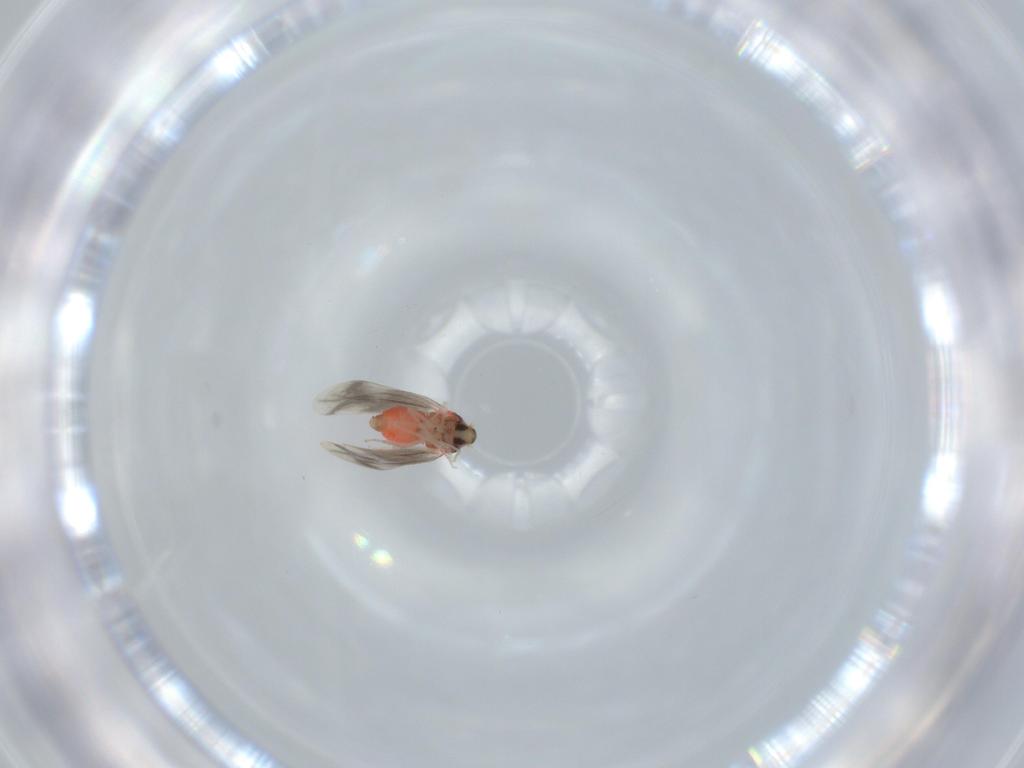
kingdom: Animalia
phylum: Arthropoda
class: Insecta
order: Hemiptera
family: Aleyrodidae
